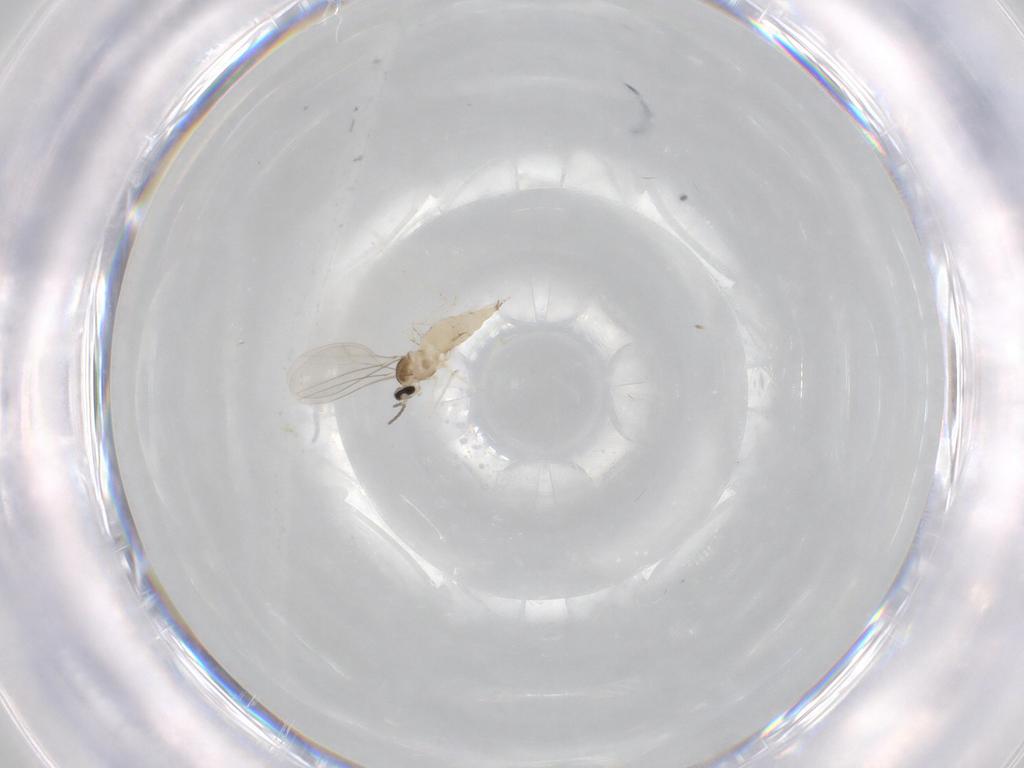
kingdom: Animalia
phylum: Arthropoda
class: Insecta
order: Diptera
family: Cecidomyiidae
